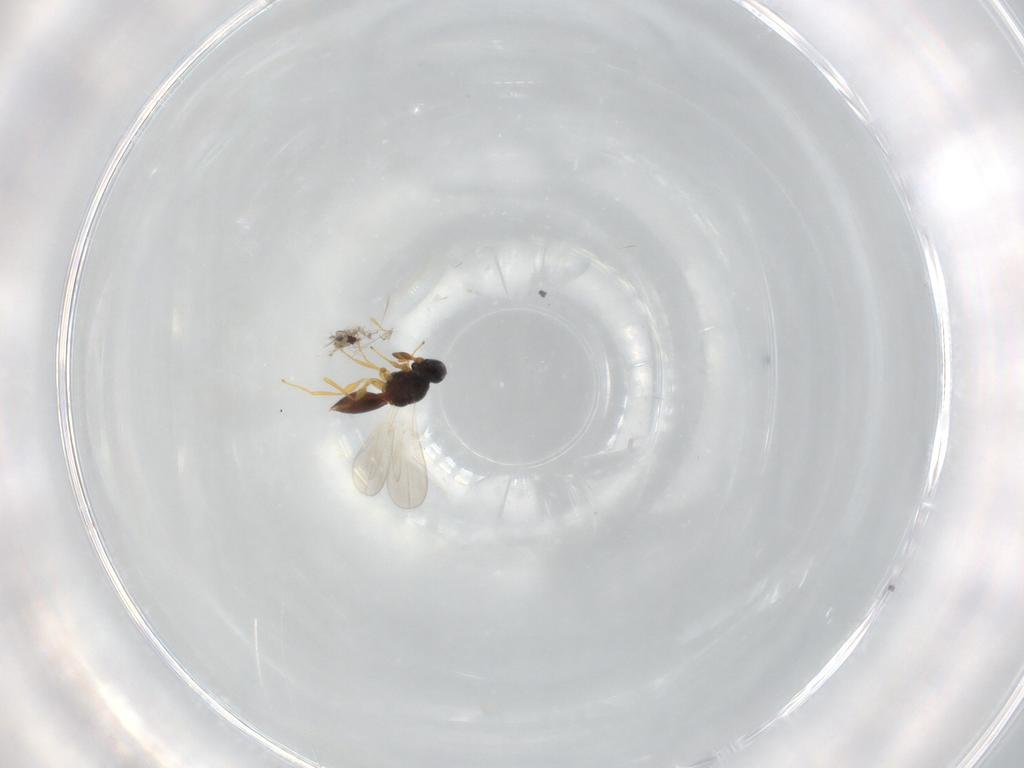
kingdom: Animalia
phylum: Arthropoda
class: Insecta
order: Hymenoptera
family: Platygastridae
